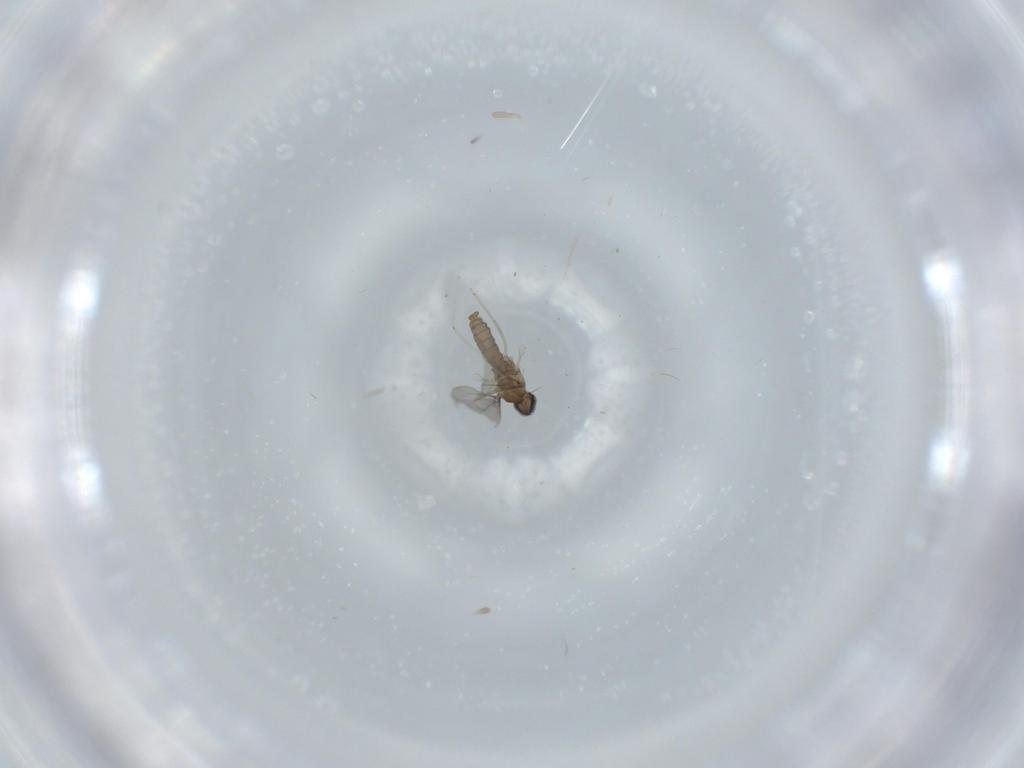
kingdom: Animalia
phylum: Arthropoda
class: Insecta
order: Diptera
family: Cecidomyiidae
